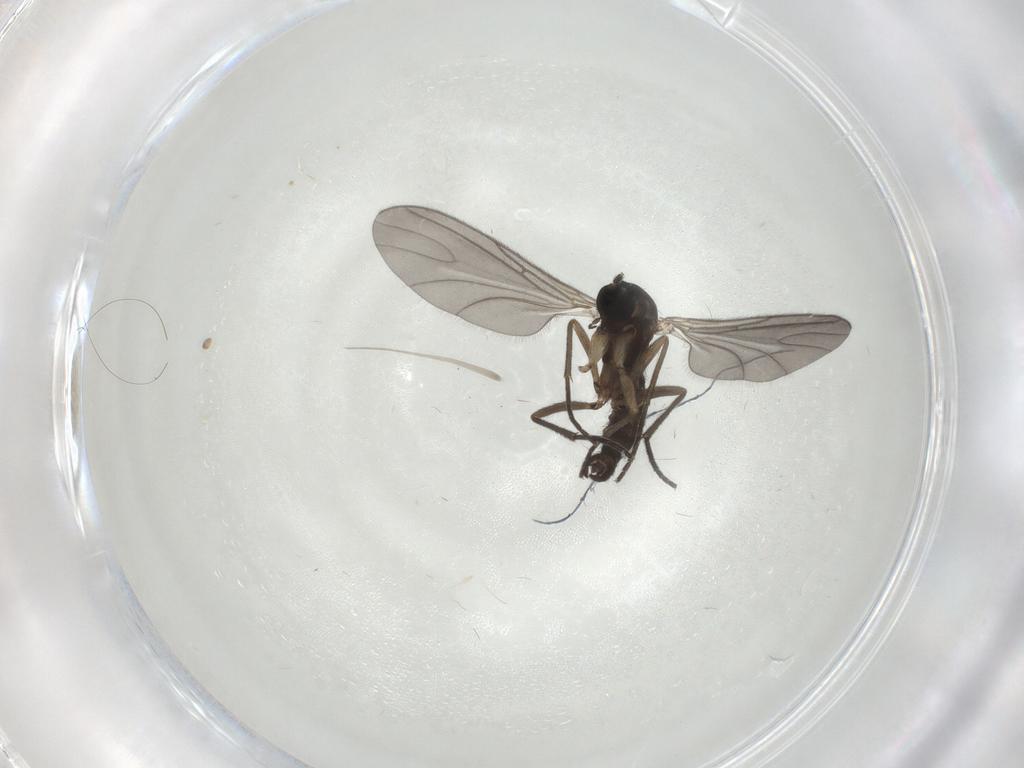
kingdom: Animalia
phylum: Arthropoda
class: Insecta
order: Diptera
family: Sciaridae
